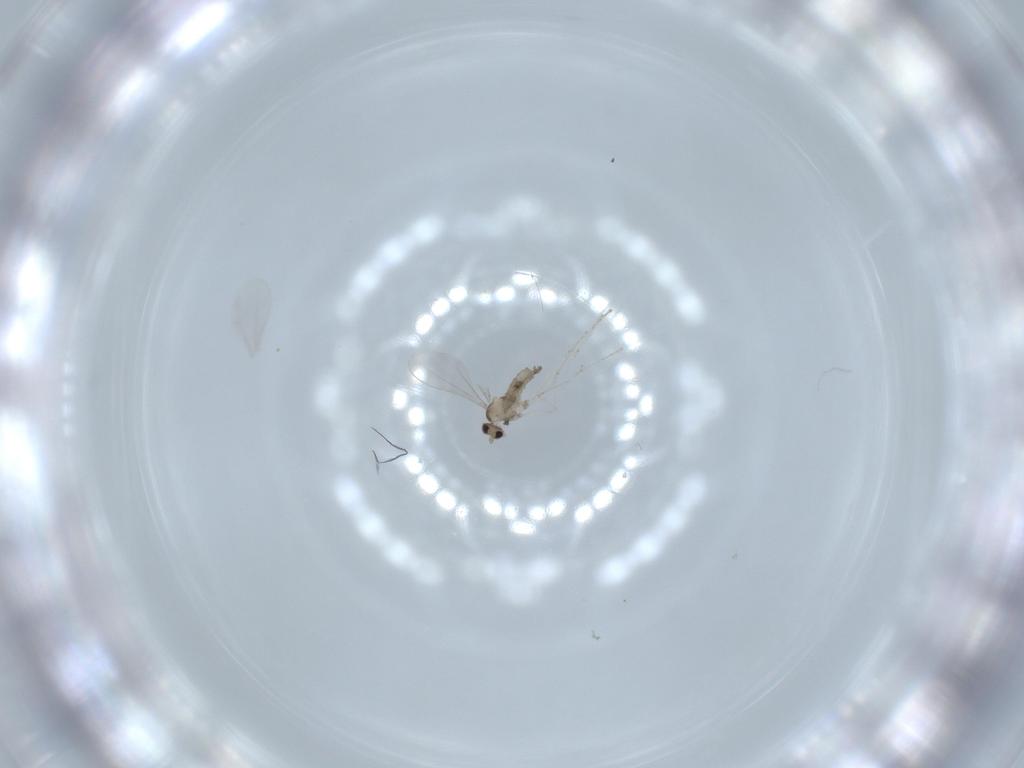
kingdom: Animalia
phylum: Arthropoda
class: Insecta
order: Diptera
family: Cecidomyiidae
